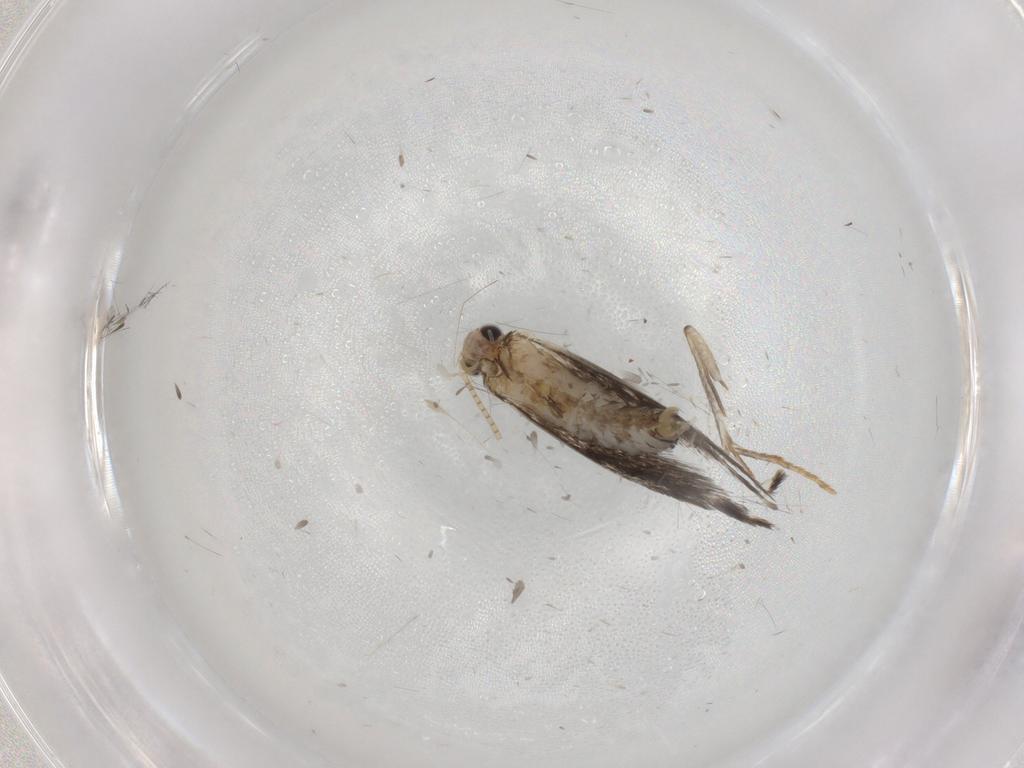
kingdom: Animalia
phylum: Arthropoda
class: Insecta
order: Lepidoptera
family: Tineidae
